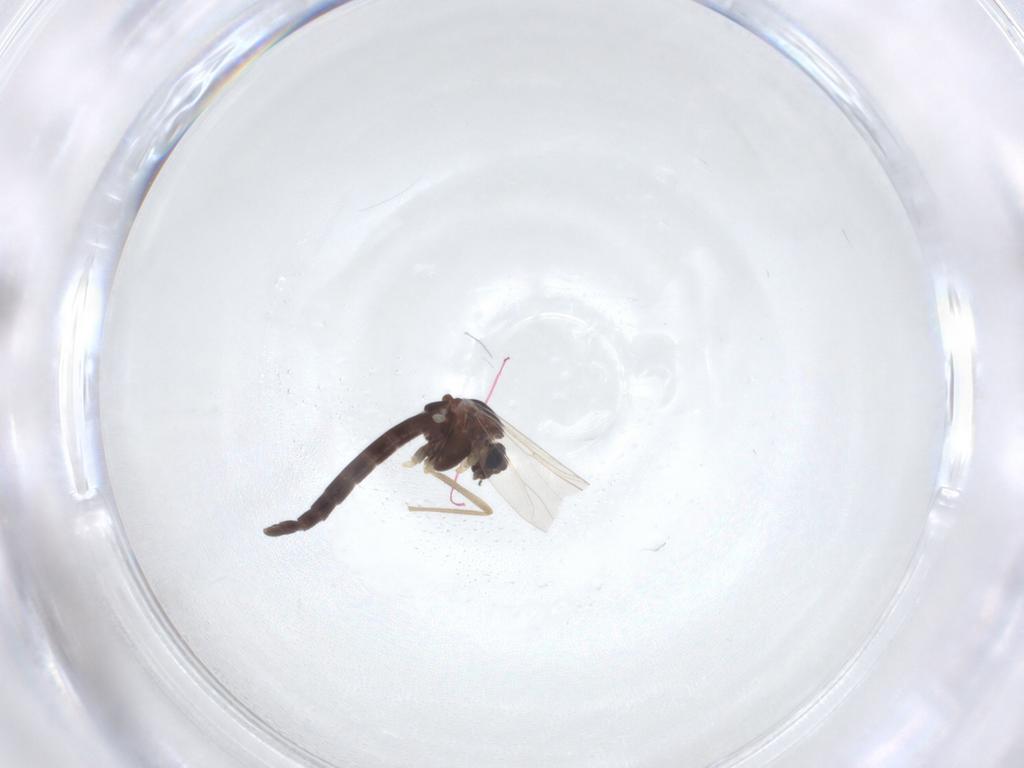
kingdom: Animalia
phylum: Arthropoda
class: Insecta
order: Diptera
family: Chironomidae
